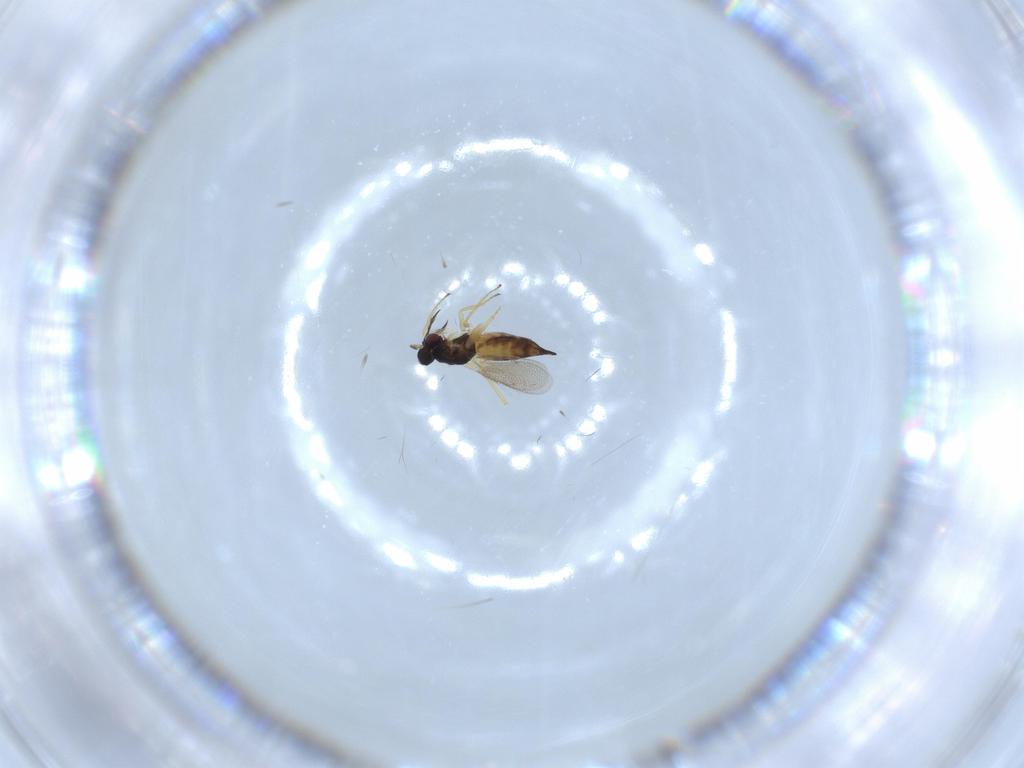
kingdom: Animalia
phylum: Arthropoda
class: Insecta
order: Hymenoptera
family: Eulophidae
